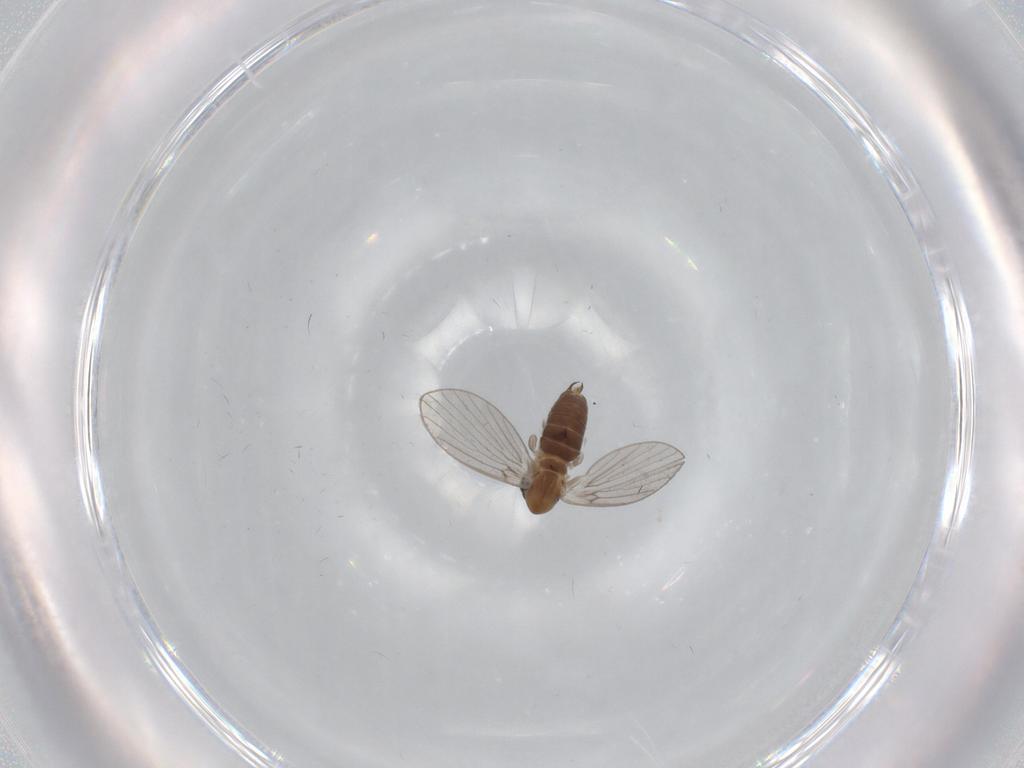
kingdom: Animalia
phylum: Arthropoda
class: Insecta
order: Diptera
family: Psychodidae
